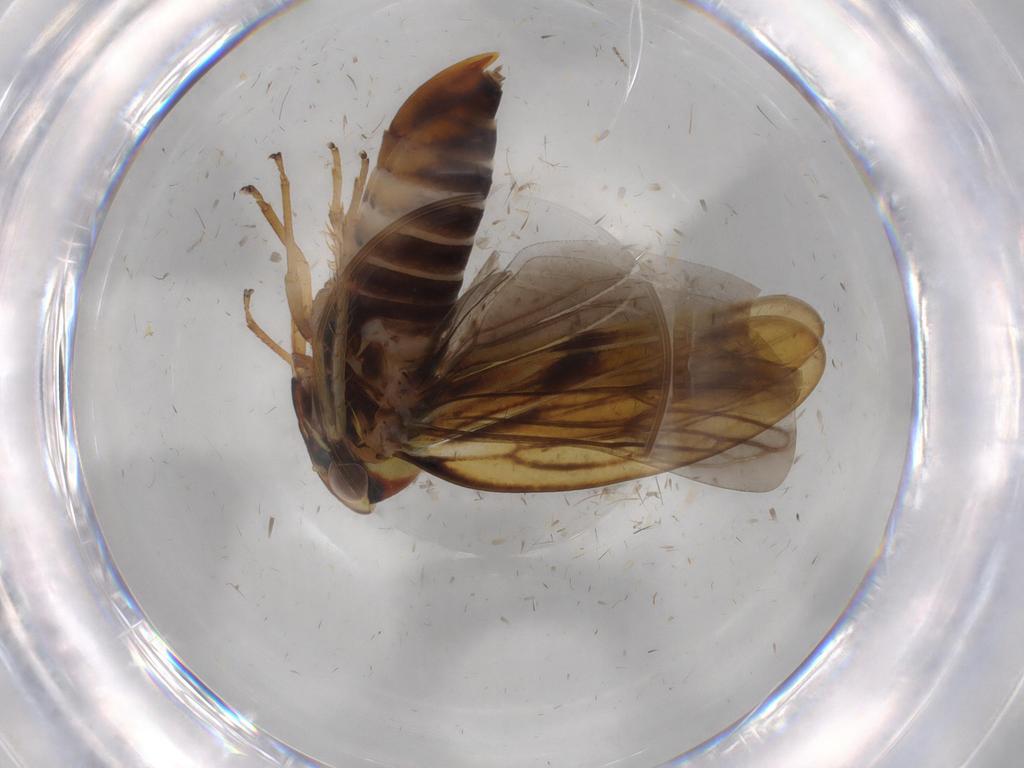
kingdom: Animalia
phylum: Arthropoda
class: Insecta
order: Hemiptera
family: Cicadellidae
